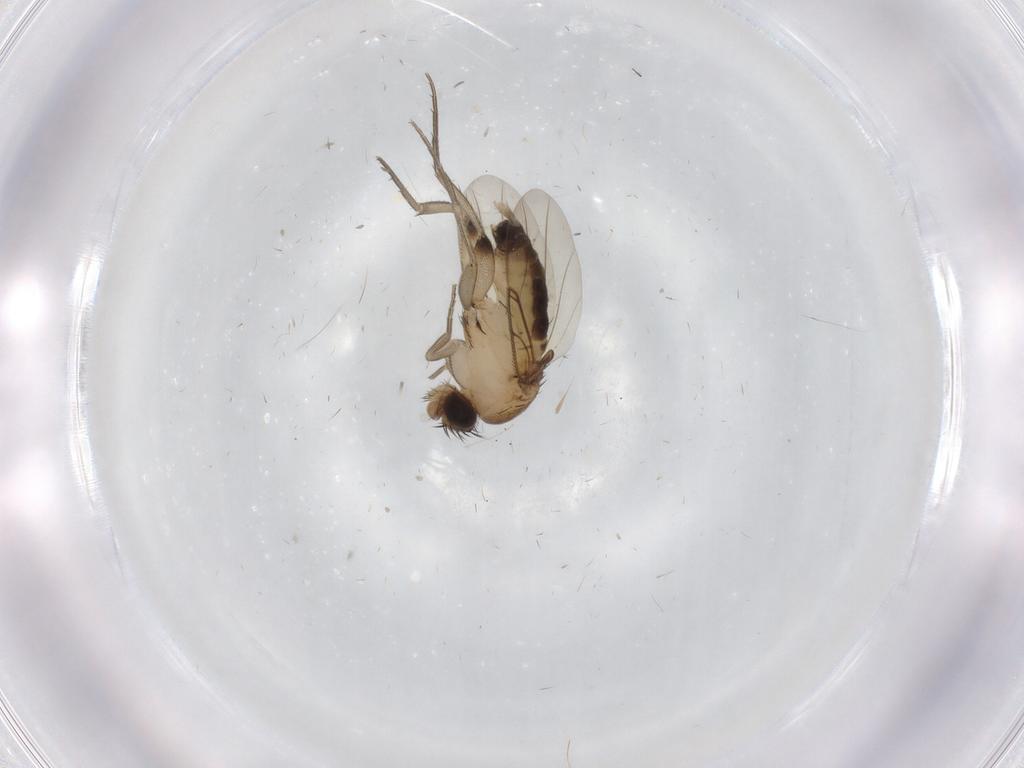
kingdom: Animalia
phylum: Arthropoda
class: Insecta
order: Diptera
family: Phoridae
